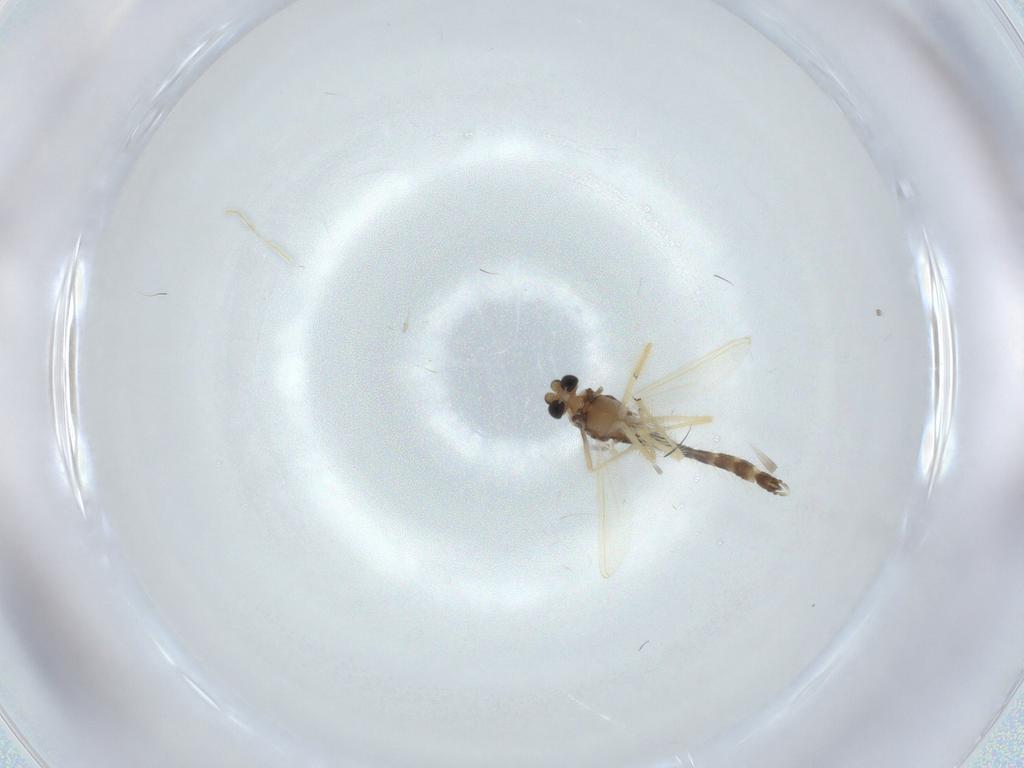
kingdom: Animalia
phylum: Arthropoda
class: Insecta
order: Diptera
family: Chironomidae
